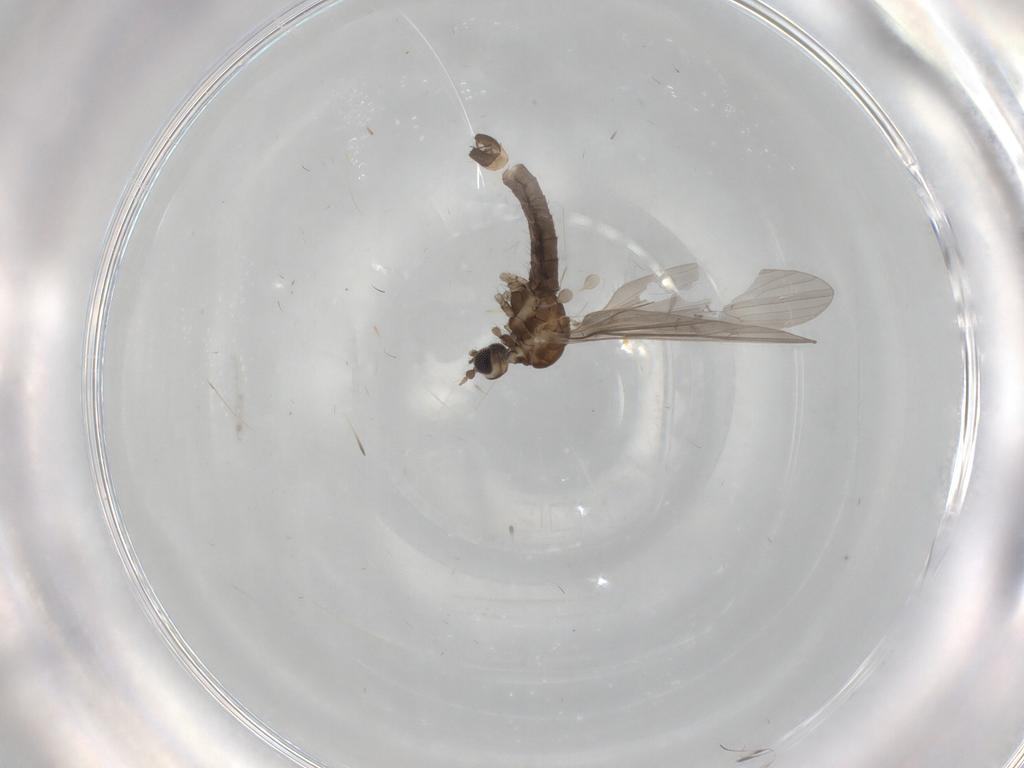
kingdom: Animalia
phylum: Arthropoda
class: Insecta
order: Diptera
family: Limoniidae
